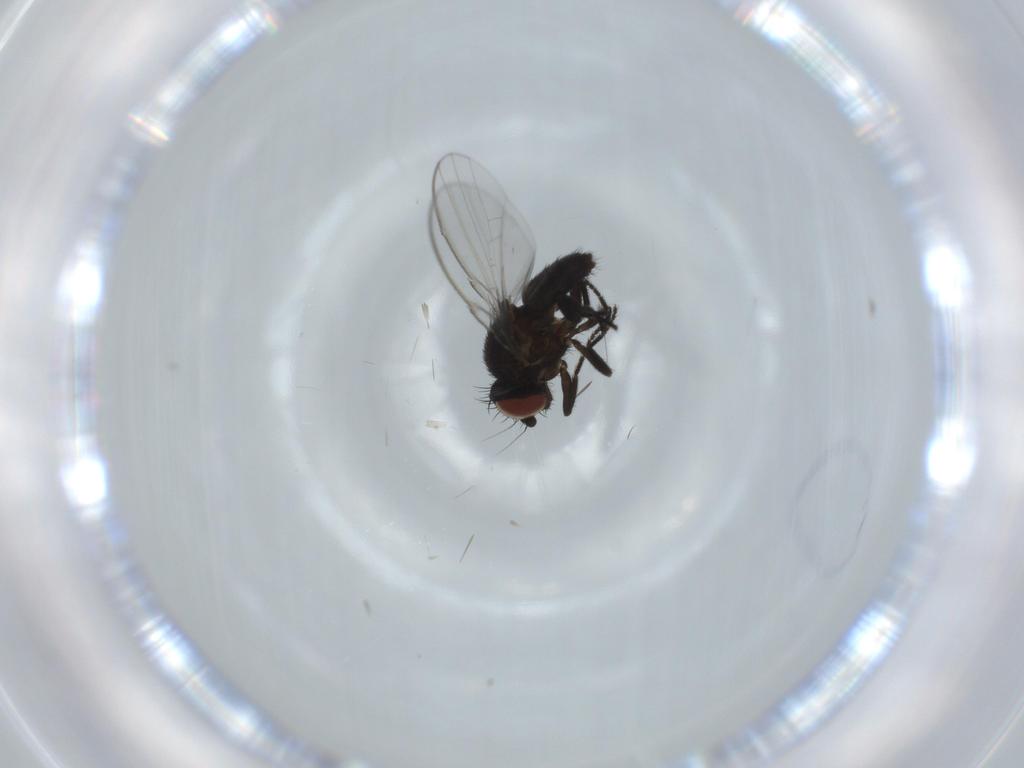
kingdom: Animalia
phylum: Arthropoda
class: Insecta
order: Diptera
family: Milichiidae
